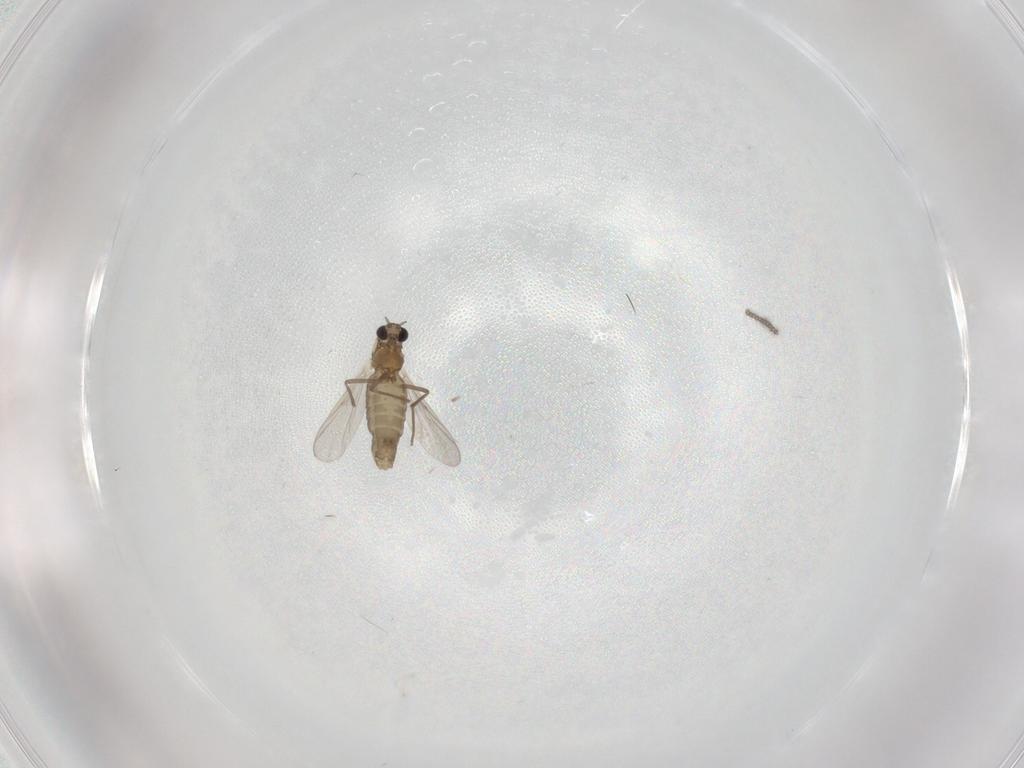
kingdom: Animalia
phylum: Arthropoda
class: Insecta
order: Diptera
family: Chironomidae
